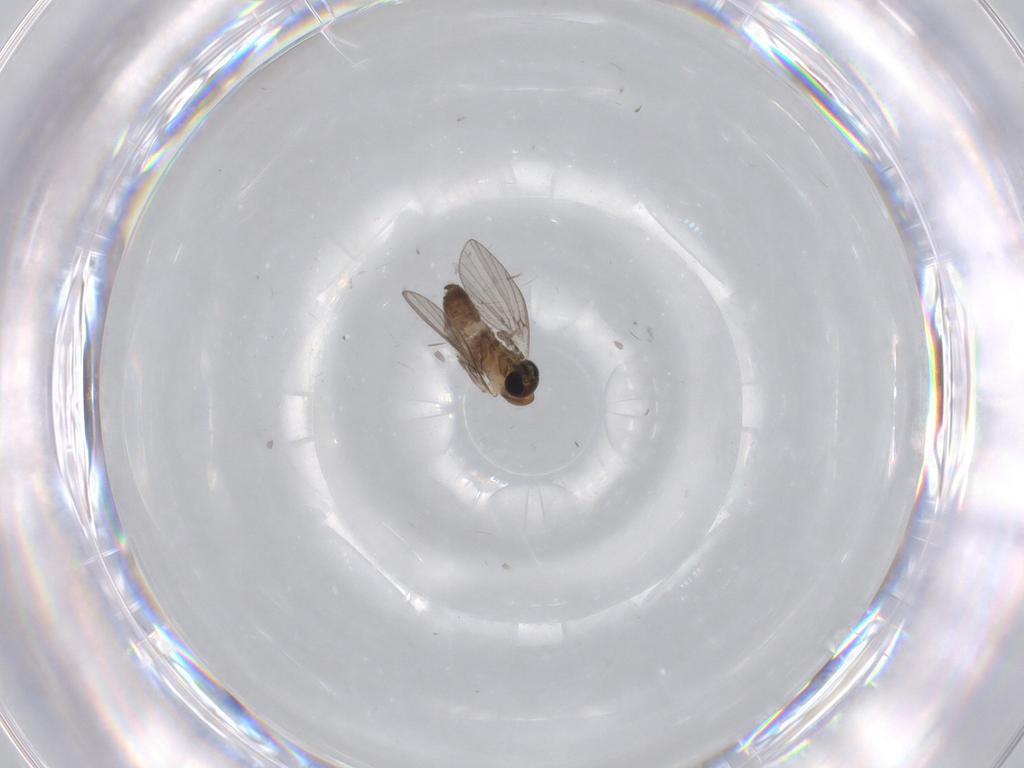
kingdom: Animalia
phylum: Arthropoda
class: Insecta
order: Diptera
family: Psychodidae
